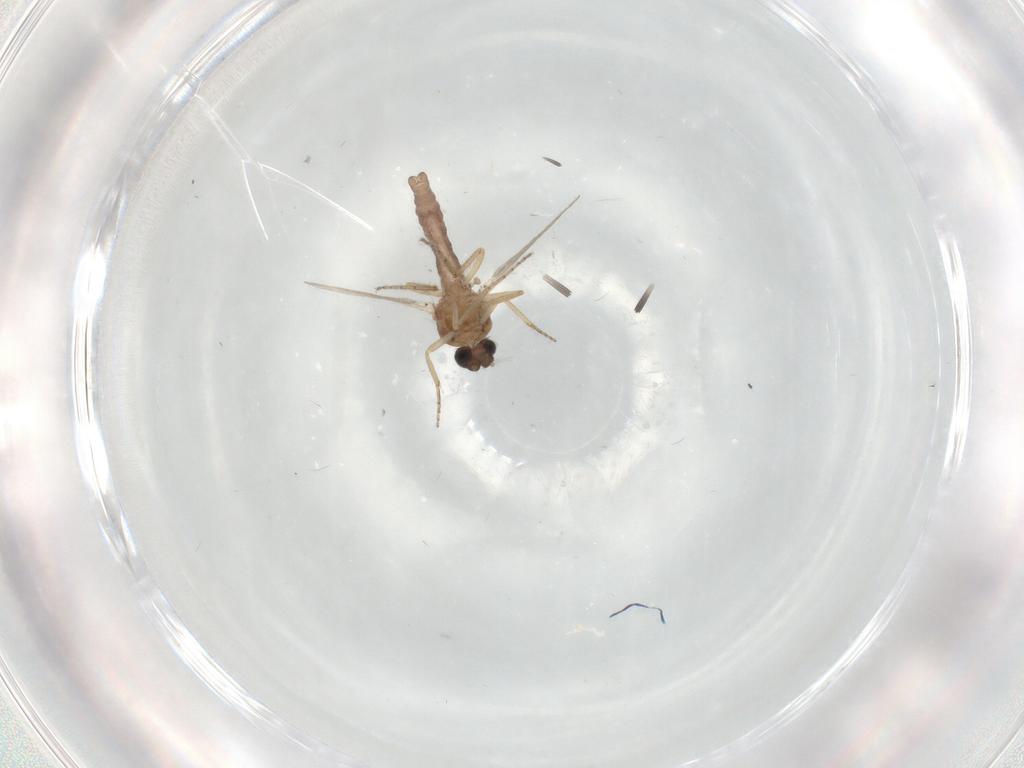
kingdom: Animalia
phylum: Arthropoda
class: Insecta
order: Diptera
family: Ceratopogonidae
